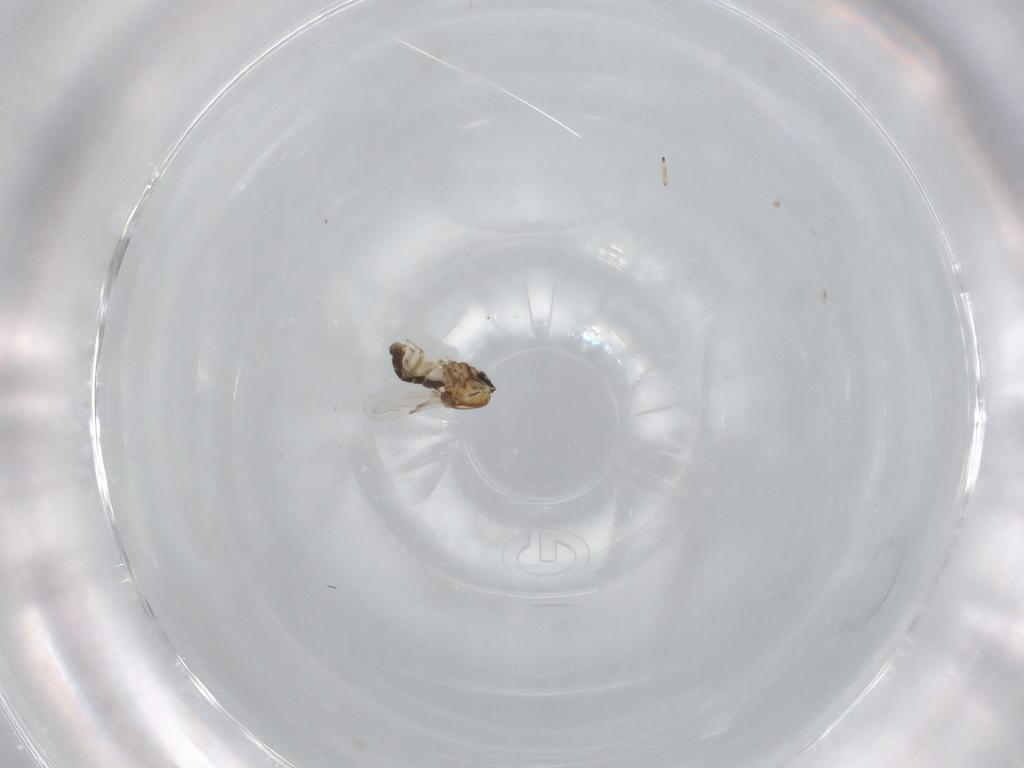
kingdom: Animalia
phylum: Arthropoda
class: Insecta
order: Diptera
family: Ceratopogonidae
